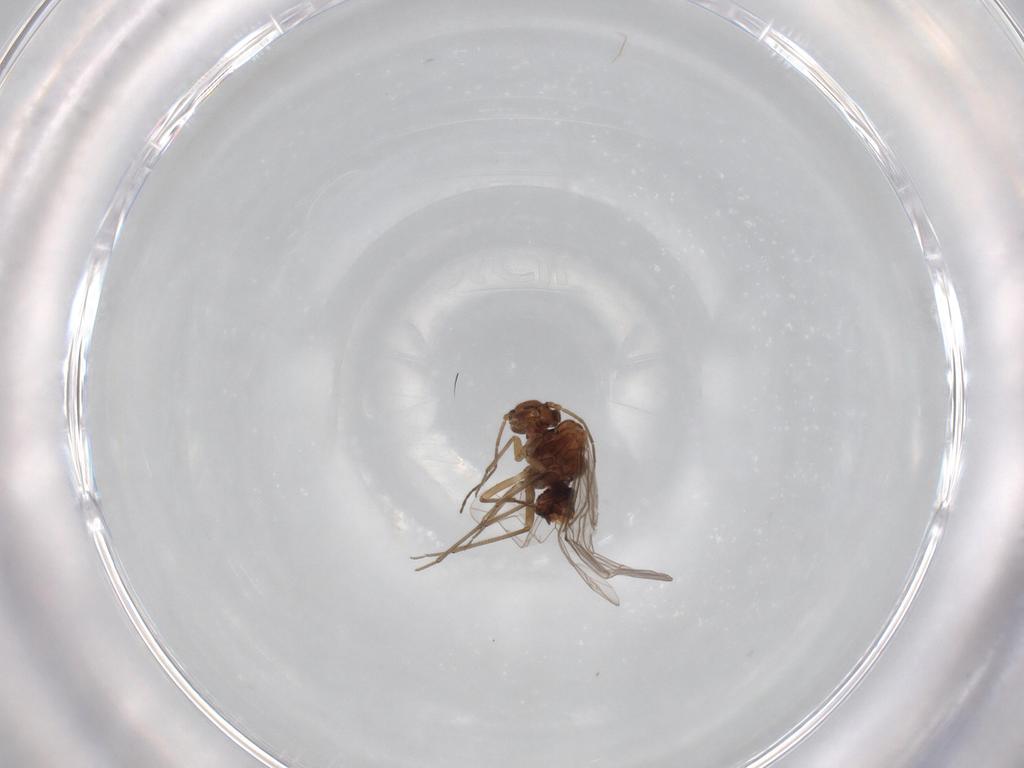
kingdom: Animalia
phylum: Arthropoda
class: Insecta
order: Psocodea
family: Lachesillidae
